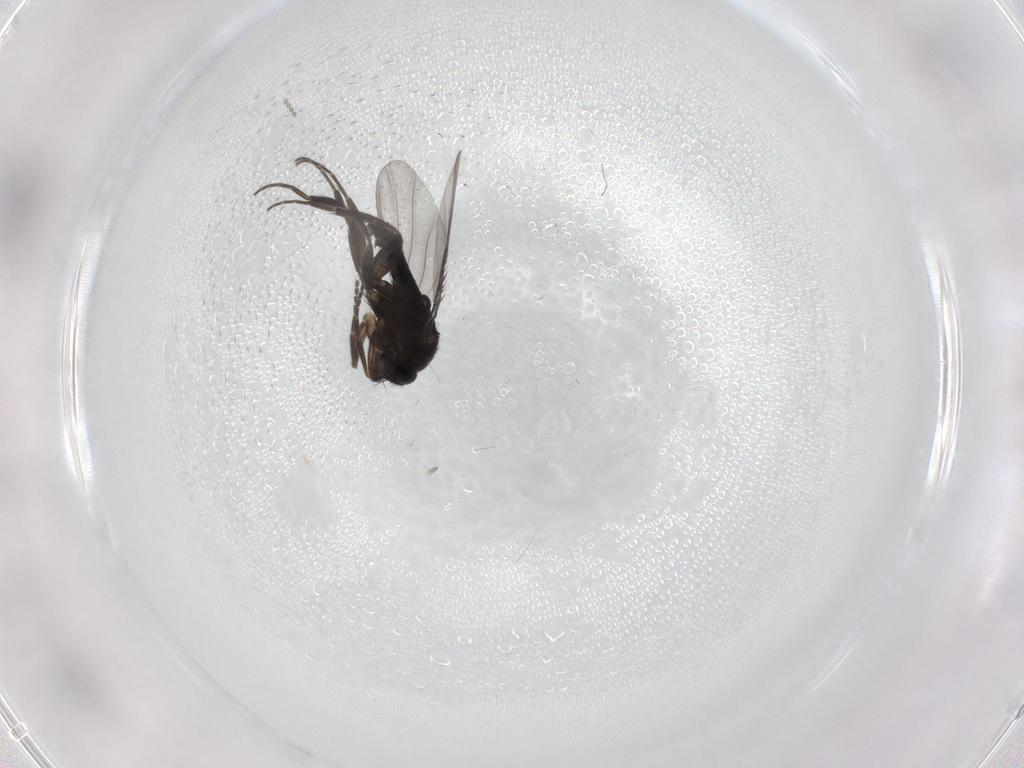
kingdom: Animalia
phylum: Arthropoda
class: Insecta
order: Diptera
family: Phoridae
